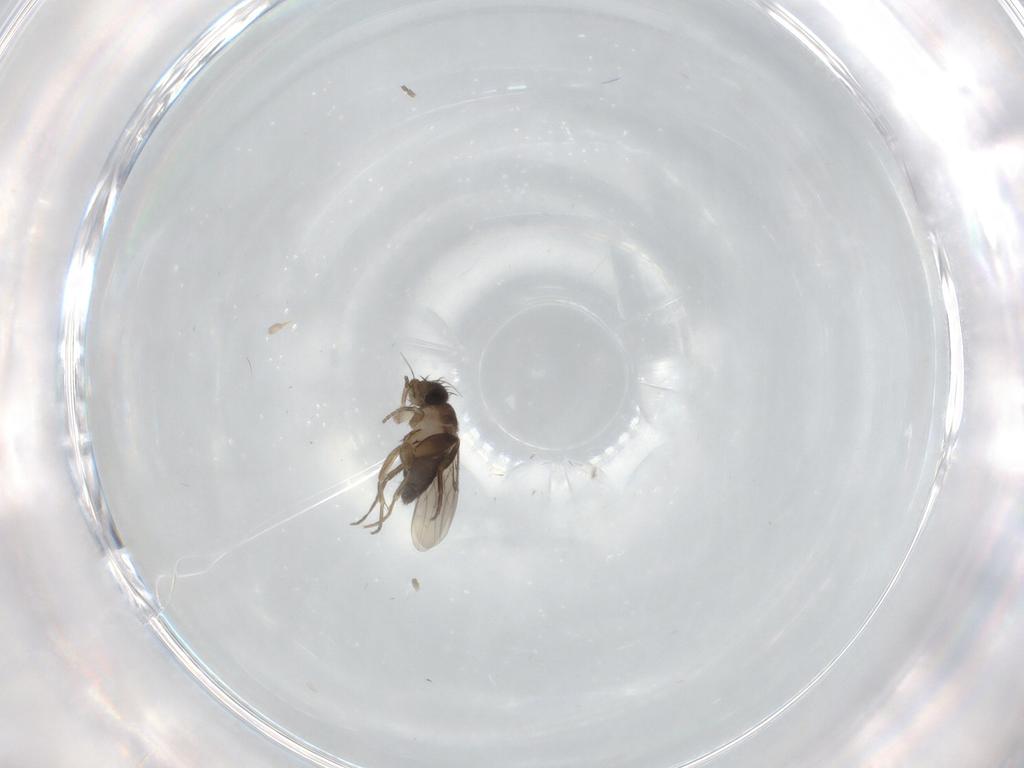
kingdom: Animalia
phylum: Arthropoda
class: Insecta
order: Diptera
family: Phoridae
